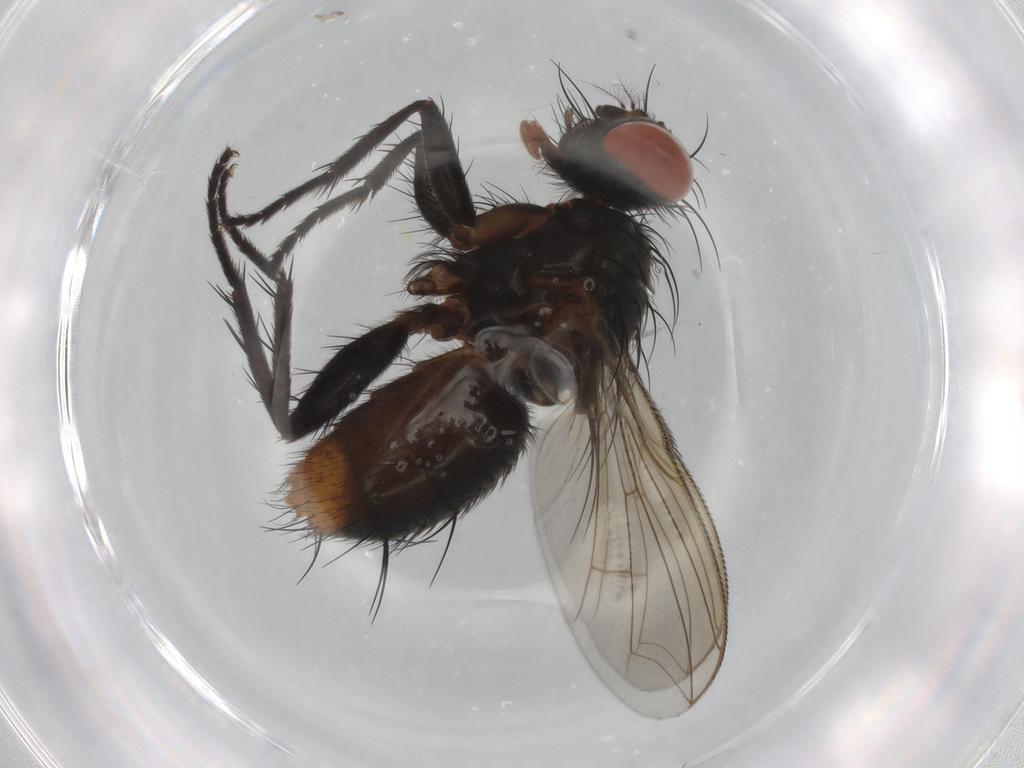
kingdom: Animalia
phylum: Arthropoda
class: Insecta
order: Diptera
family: Sarcophagidae
